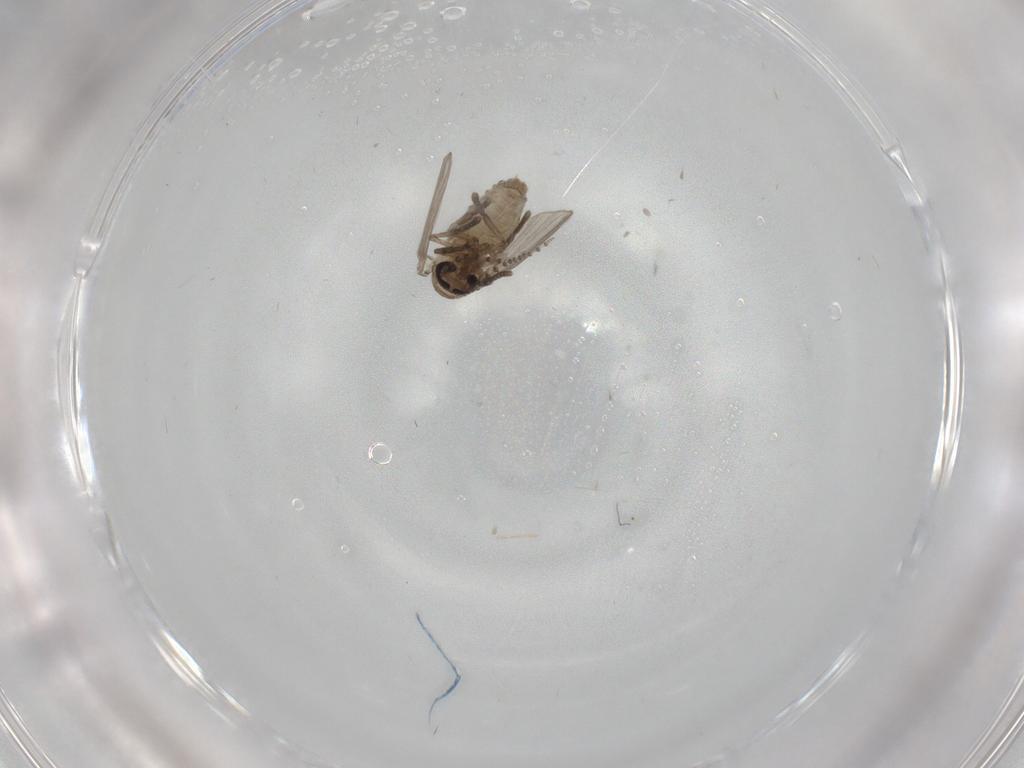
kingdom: Animalia
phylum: Arthropoda
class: Insecta
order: Diptera
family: Psychodidae
